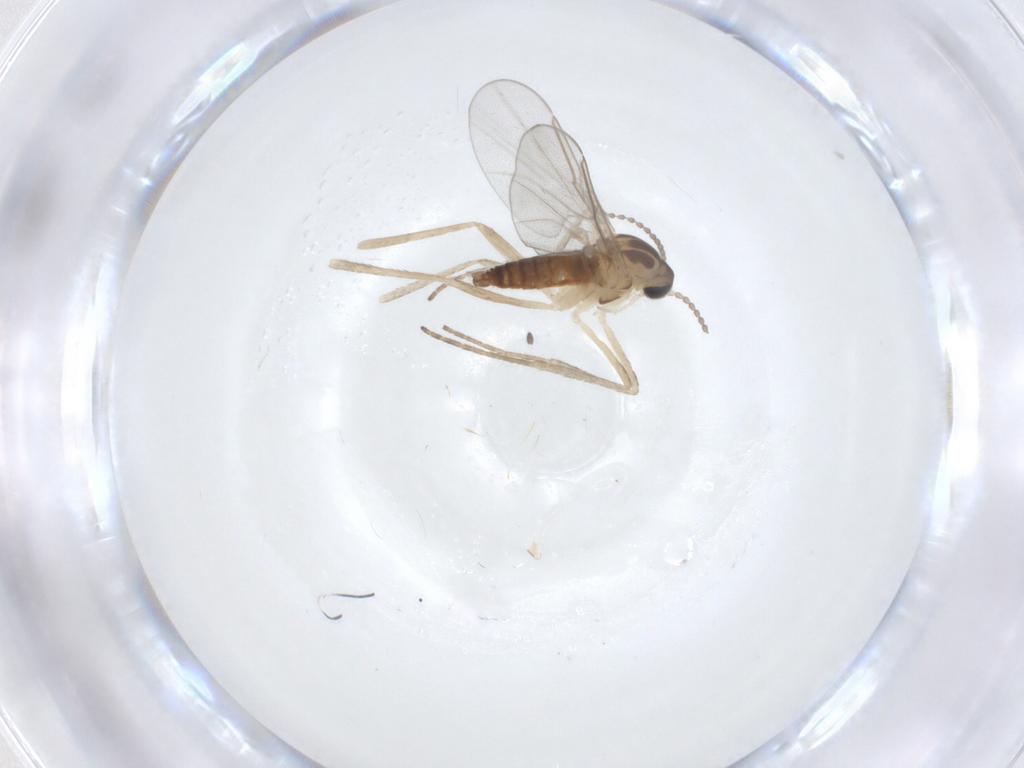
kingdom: Animalia
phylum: Arthropoda
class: Insecta
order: Diptera
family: Cecidomyiidae
